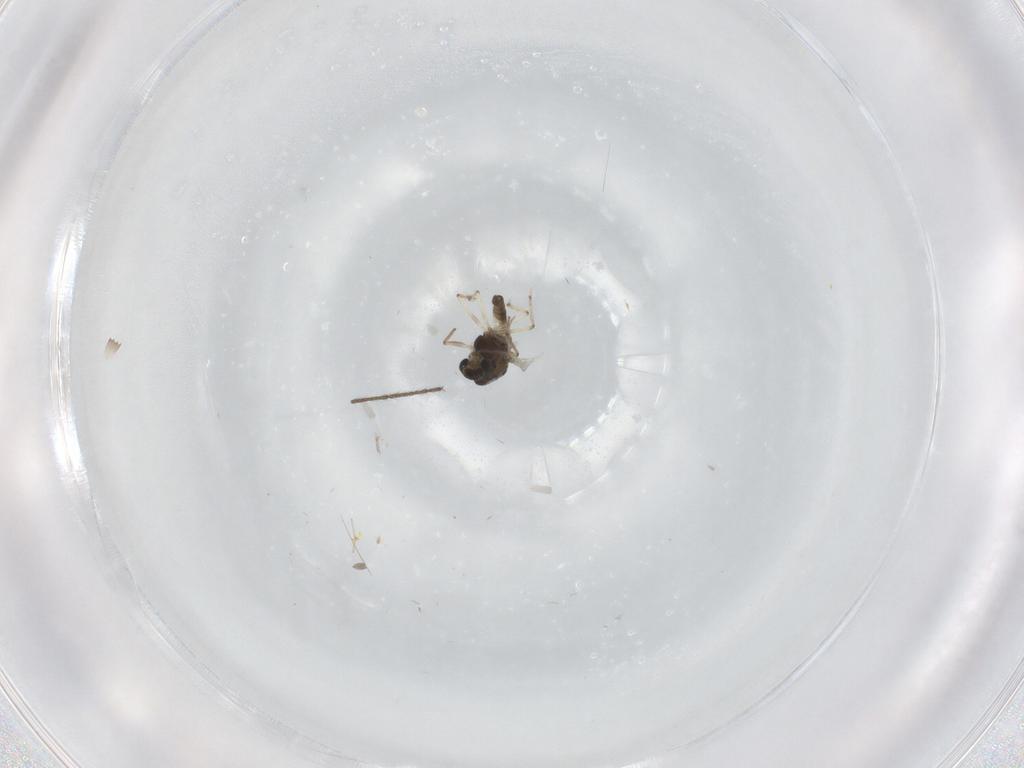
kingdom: Animalia
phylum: Arthropoda
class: Insecta
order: Diptera
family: Chironomidae
